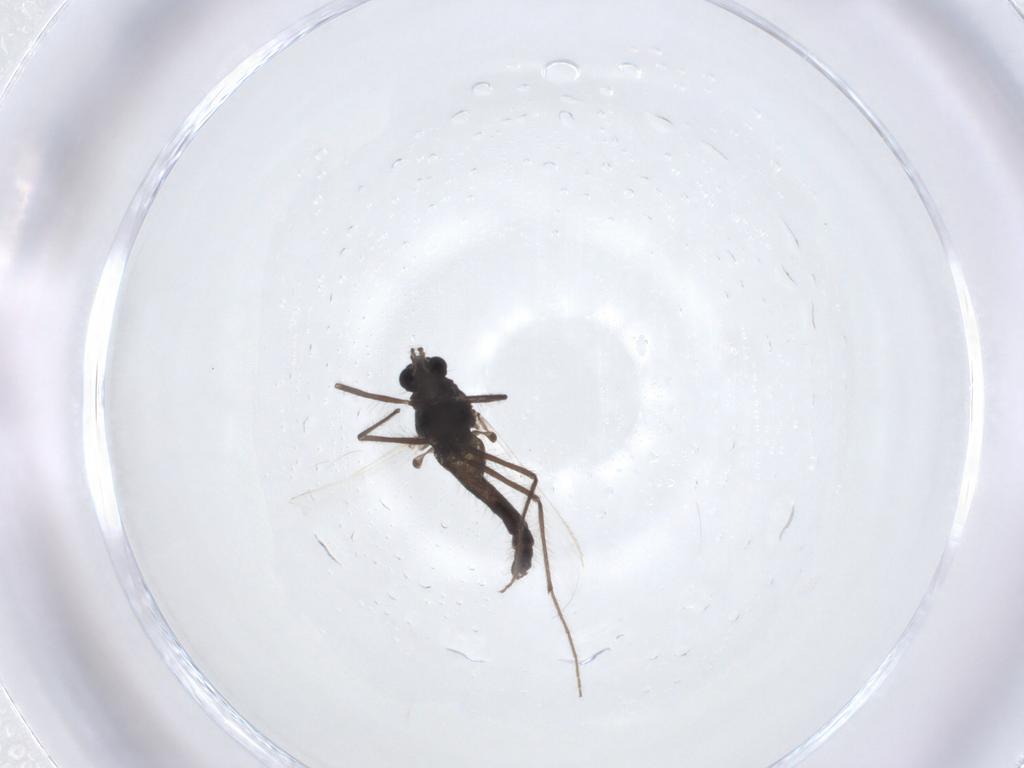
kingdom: Animalia
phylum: Arthropoda
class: Insecta
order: Diptera
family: Chironomidae
